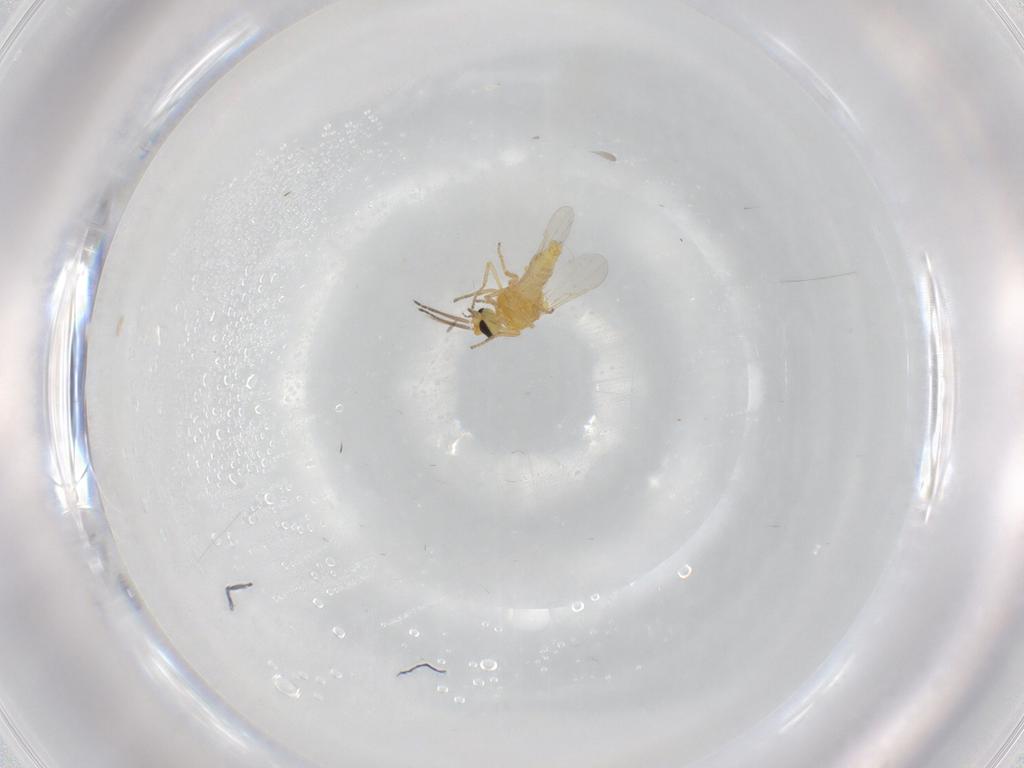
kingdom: Animalia
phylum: Arthropoda
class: Insecta
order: Diptera
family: Ceratopogonidae
